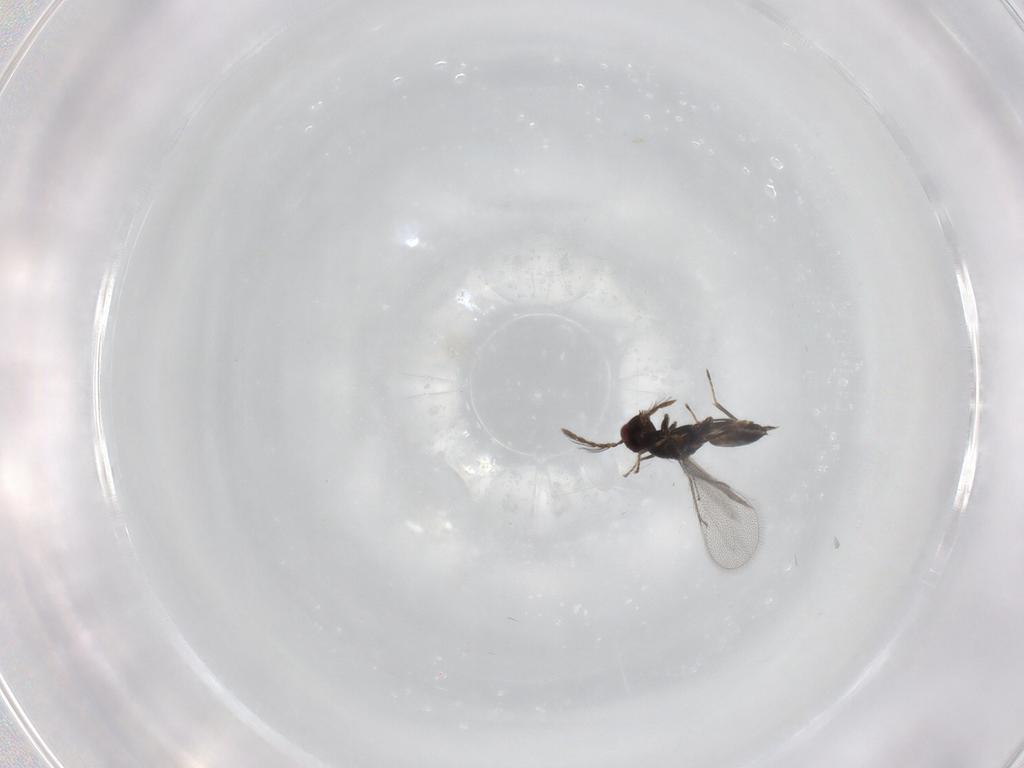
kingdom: Animalia
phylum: Arthropoda
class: Insecta
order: Hymenoptera
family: Eulophidae
